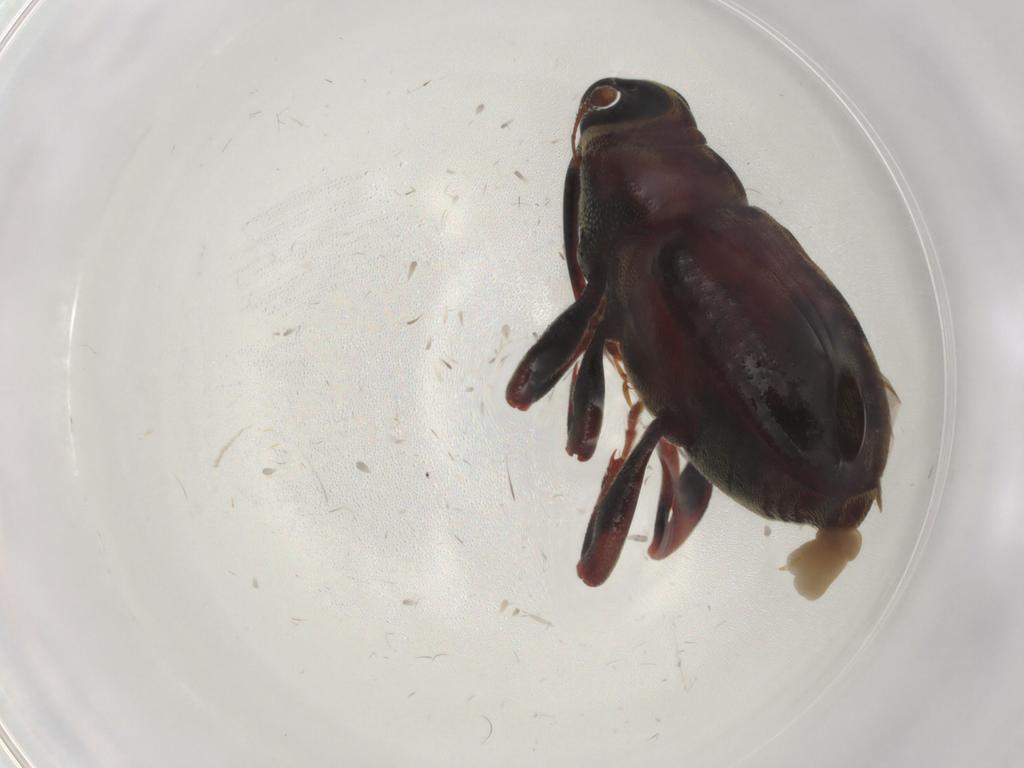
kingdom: Animalia
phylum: Arthropoda
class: Insecta
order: Coleoptera
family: Curculionidae
